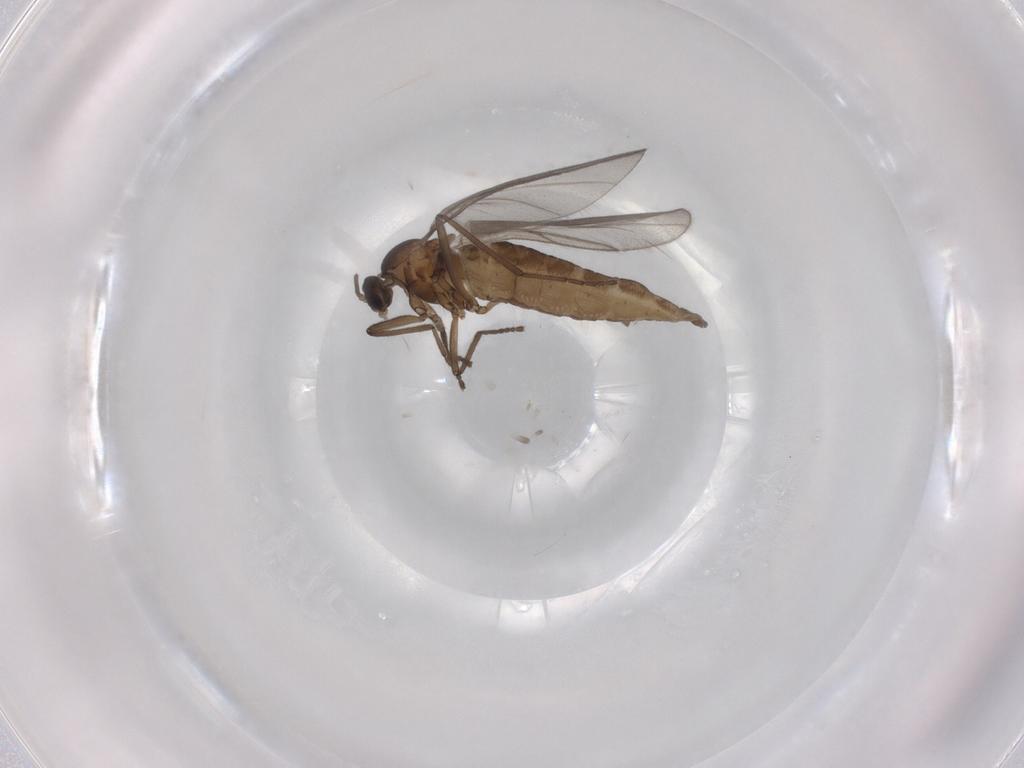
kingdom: Animalia
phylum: Arthropoda
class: Insecta
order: Diptera
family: Cecidomyiidae
